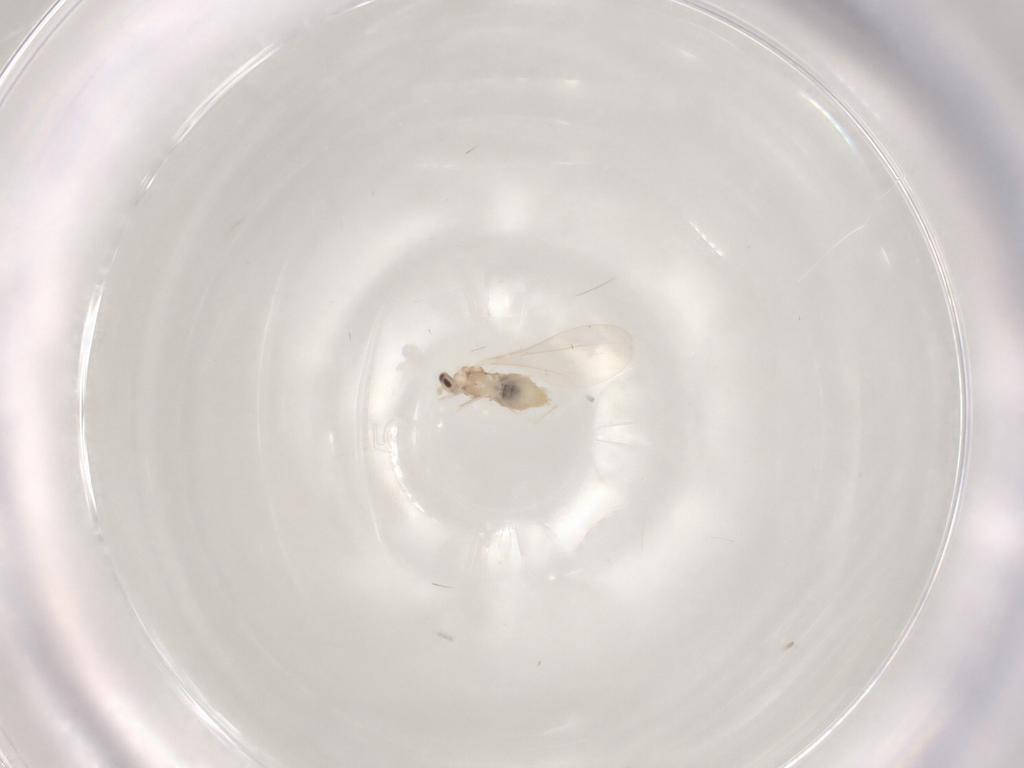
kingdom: Animalia
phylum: Arthropoda
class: Insecta
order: Diptera
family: Cecidomyiidae
